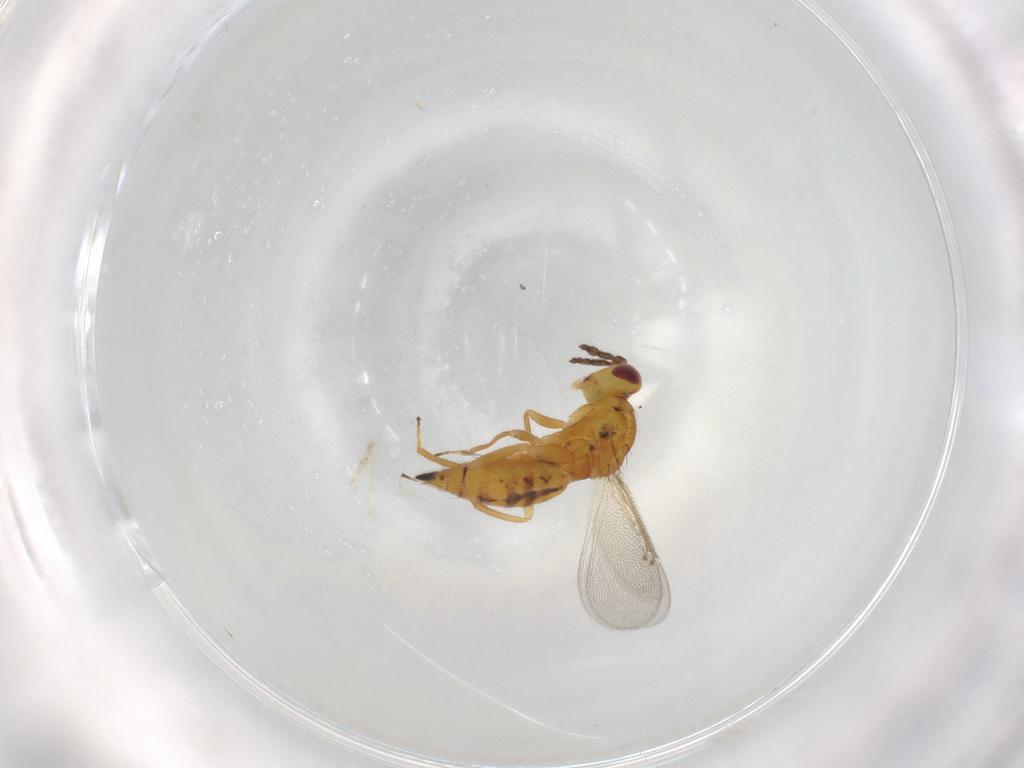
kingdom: Animalia
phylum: Arthropoda
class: Insecta
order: Hymenoptera
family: Eulophidae
